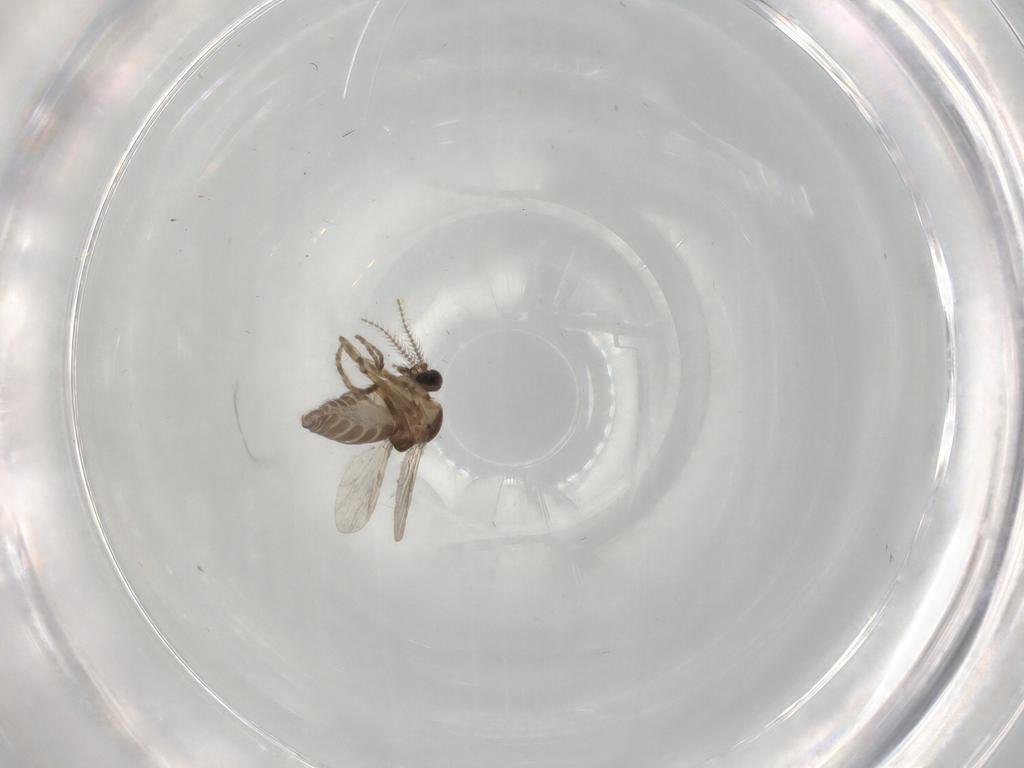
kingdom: Animalia
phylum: Arthropoda
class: Insecta
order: Diptera
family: Ceratopogonidae
